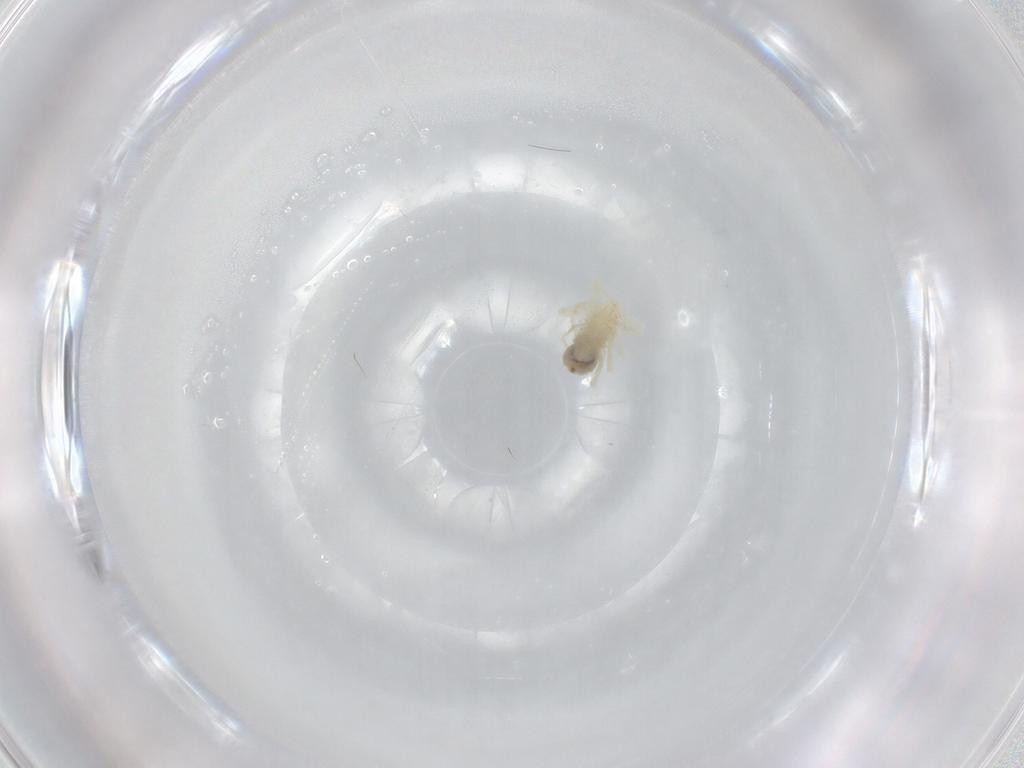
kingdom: Animalia
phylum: Arthropoda
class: Arachnida
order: Trombidiformes
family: Anystidae
